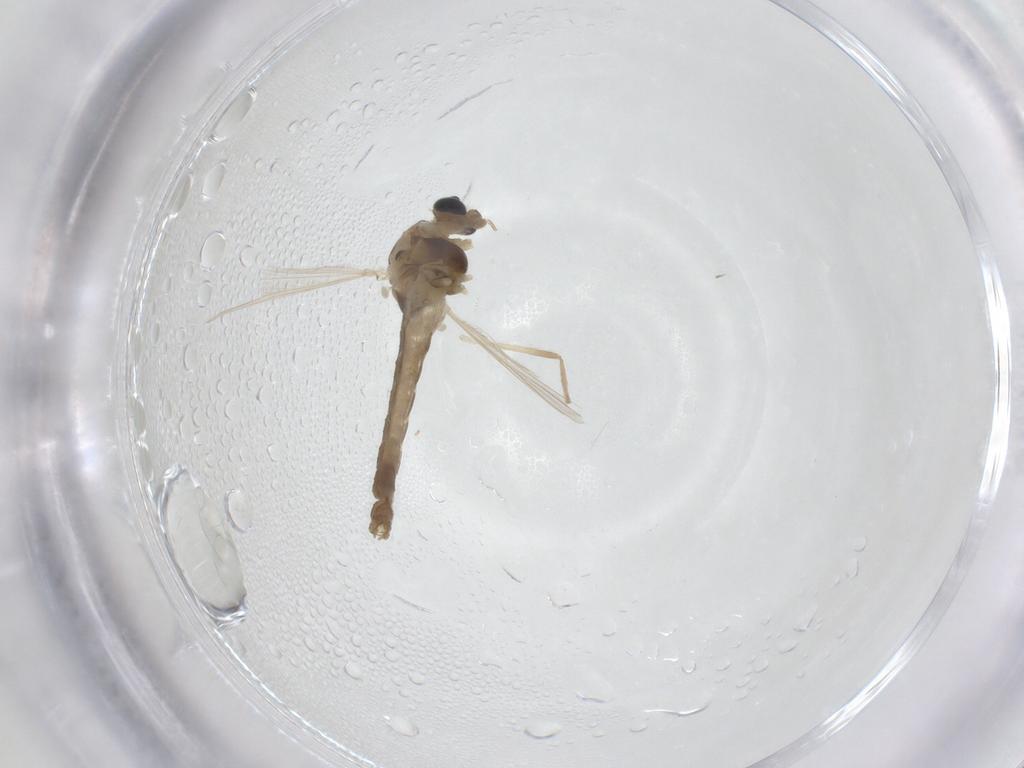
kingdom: Animalia
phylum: Arthropoda
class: Insecta
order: Diptera
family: Chironomidae
